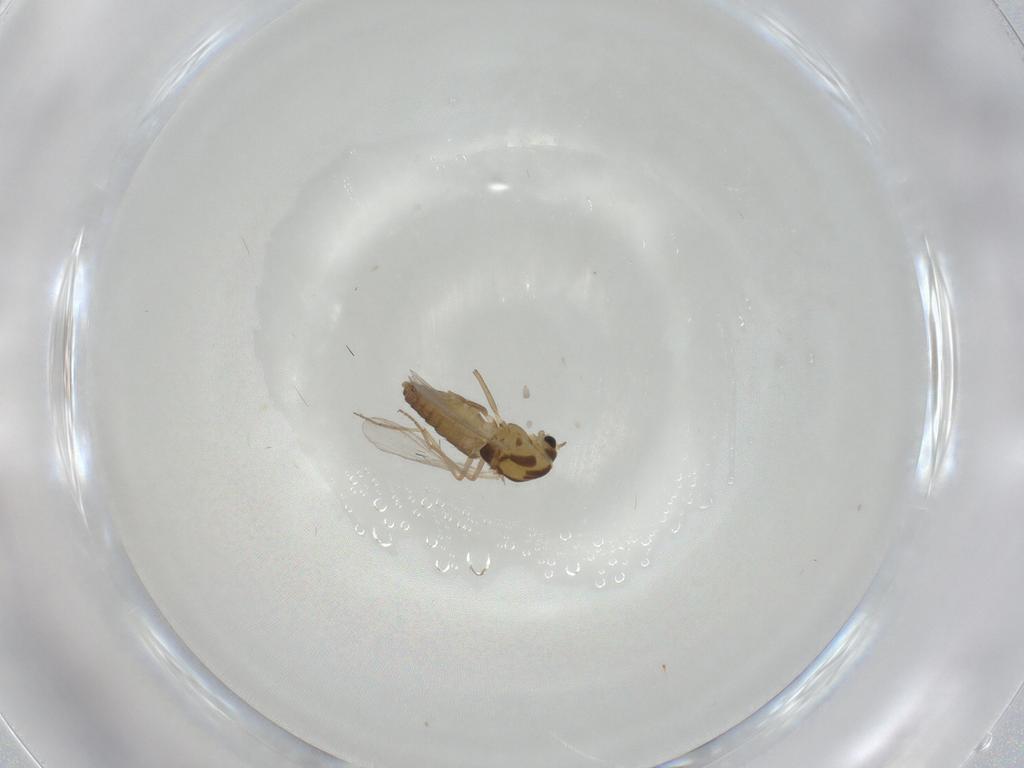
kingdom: Animalia
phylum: Arthropoda
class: Insecta
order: Diptera
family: Chironomidae
